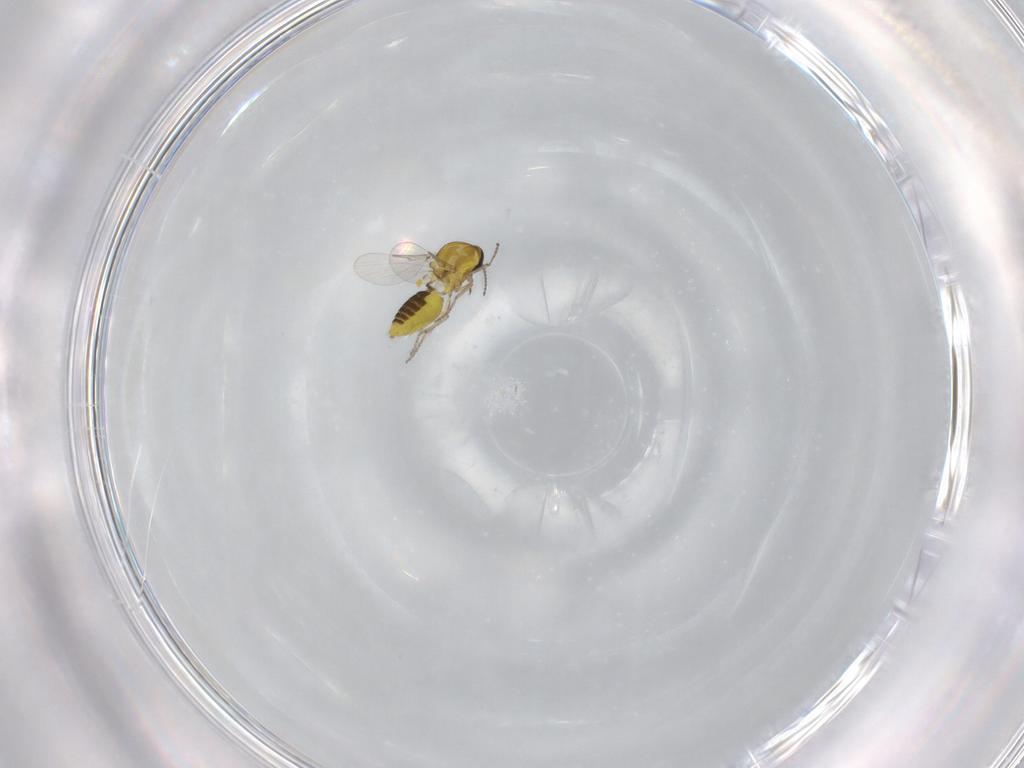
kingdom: Animalia
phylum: Arthropoda
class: Insecta
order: Diptera
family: Ceratopogonidae
